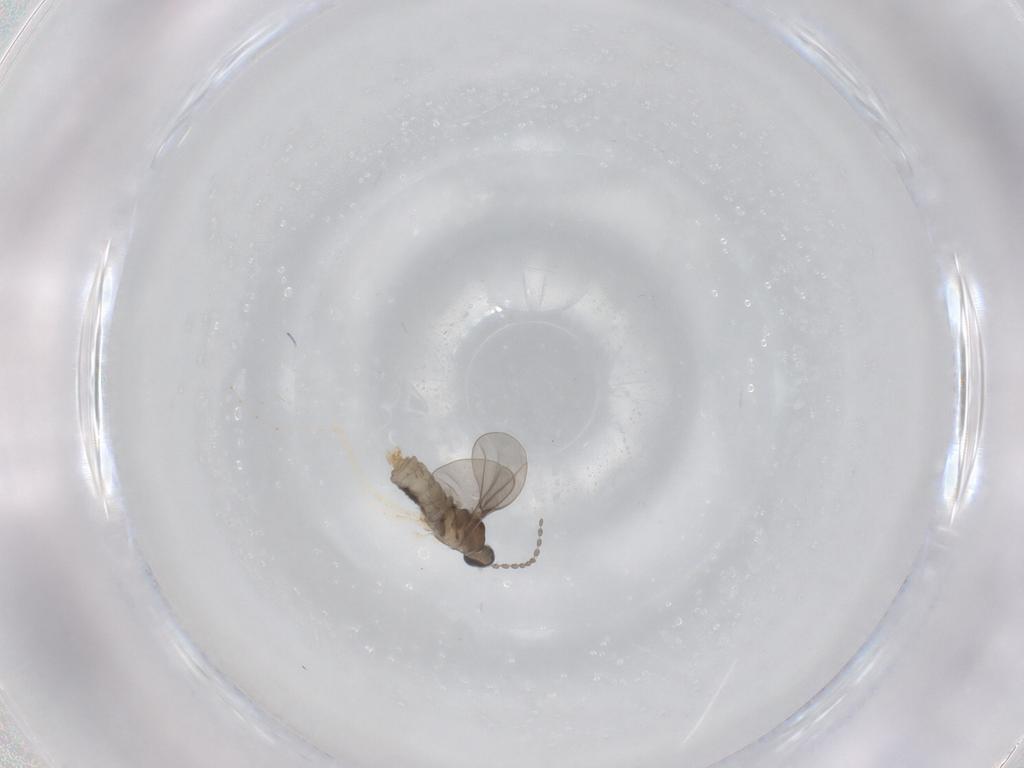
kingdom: Animalia
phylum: Arthropoda
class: Insecta
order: Diptera
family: Cecidomyiidae
